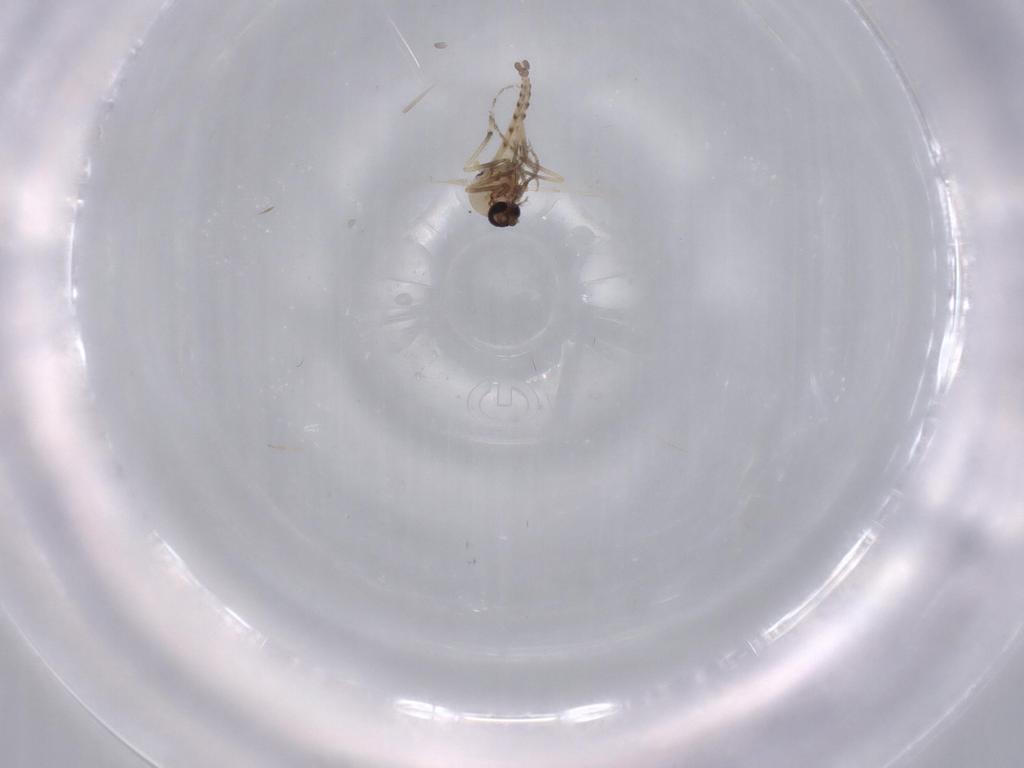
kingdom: Animalia
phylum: Arthropoda
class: Insecta
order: Diptera
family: Ceratopogonidae
